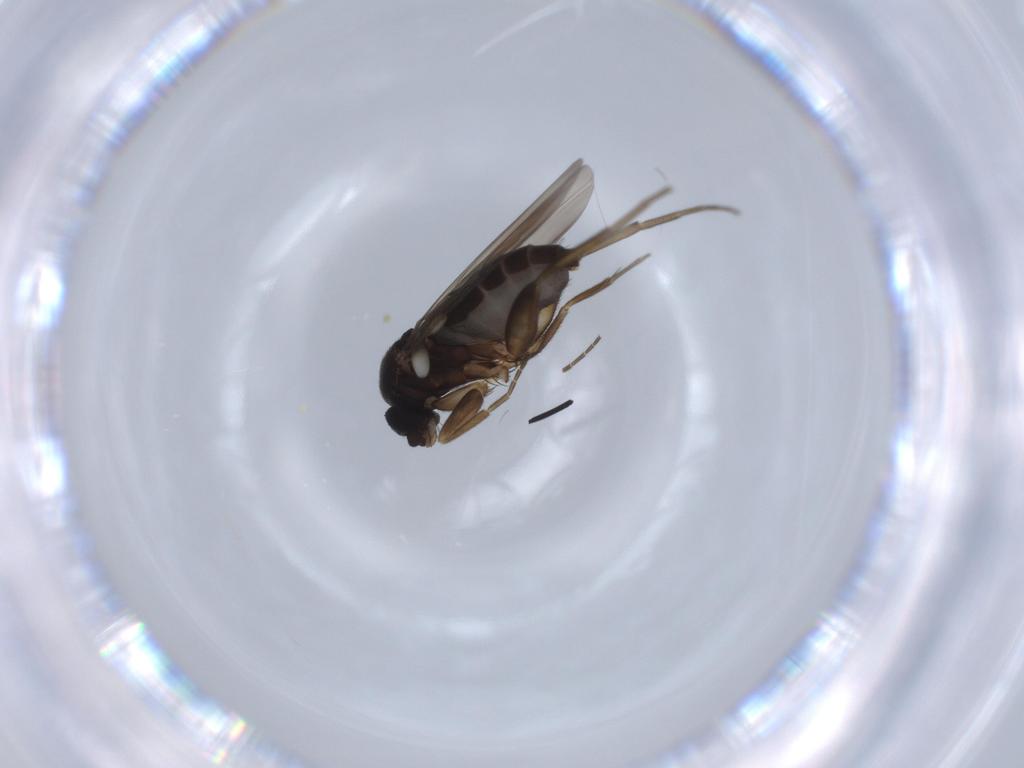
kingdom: Animalia
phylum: Arthropoda
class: Insecta
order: Diptera
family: Phoridae
